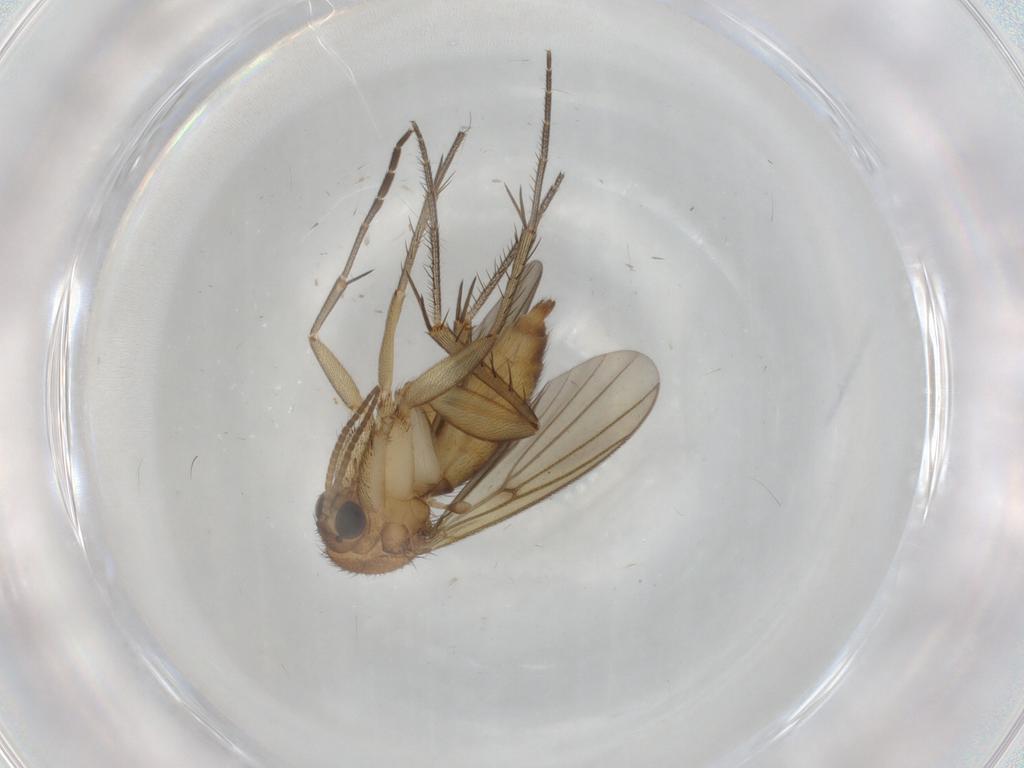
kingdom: Animalia
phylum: Arthropoda
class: Insecta
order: Diptera
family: Mycetophilidae
